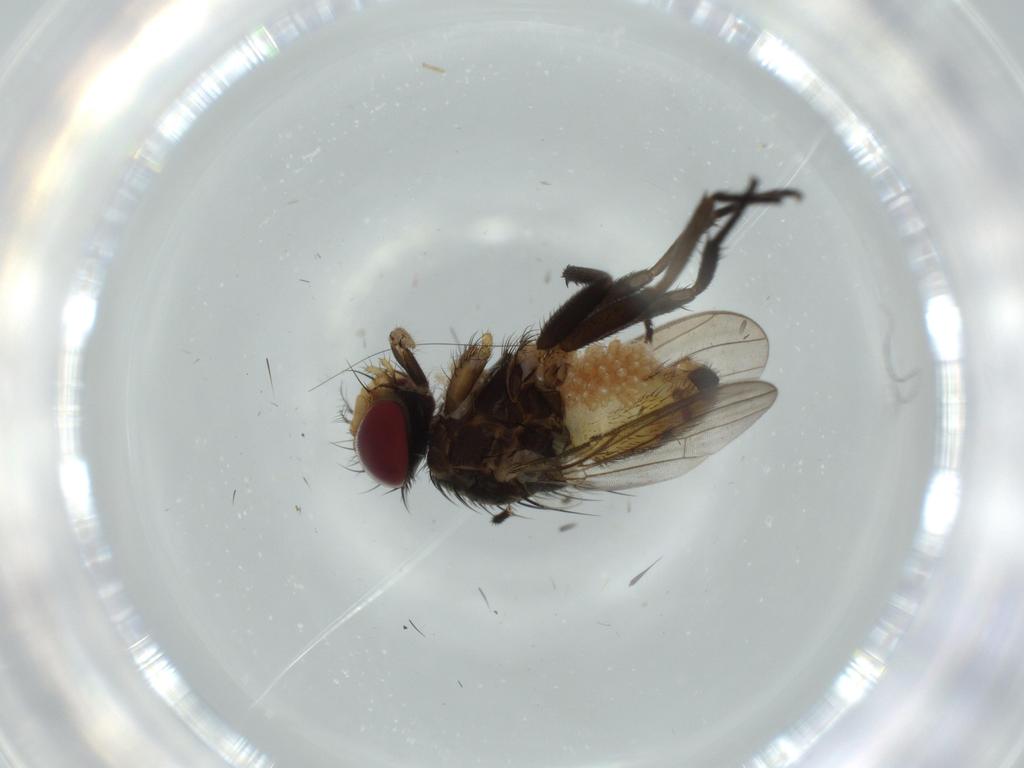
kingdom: Animalia
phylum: Arthropoda
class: Insecta
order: Diptera
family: Anthomyiidae
